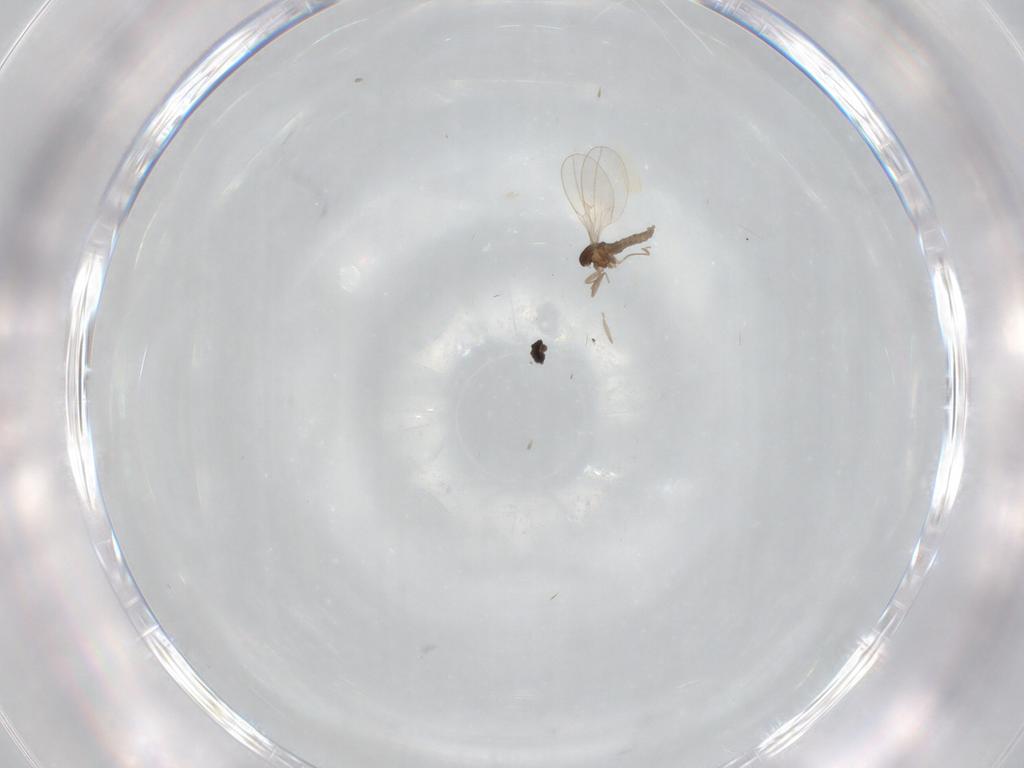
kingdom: Animalia
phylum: Arthropoda
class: Insecta
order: Diptera
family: Cecidomyiidae
